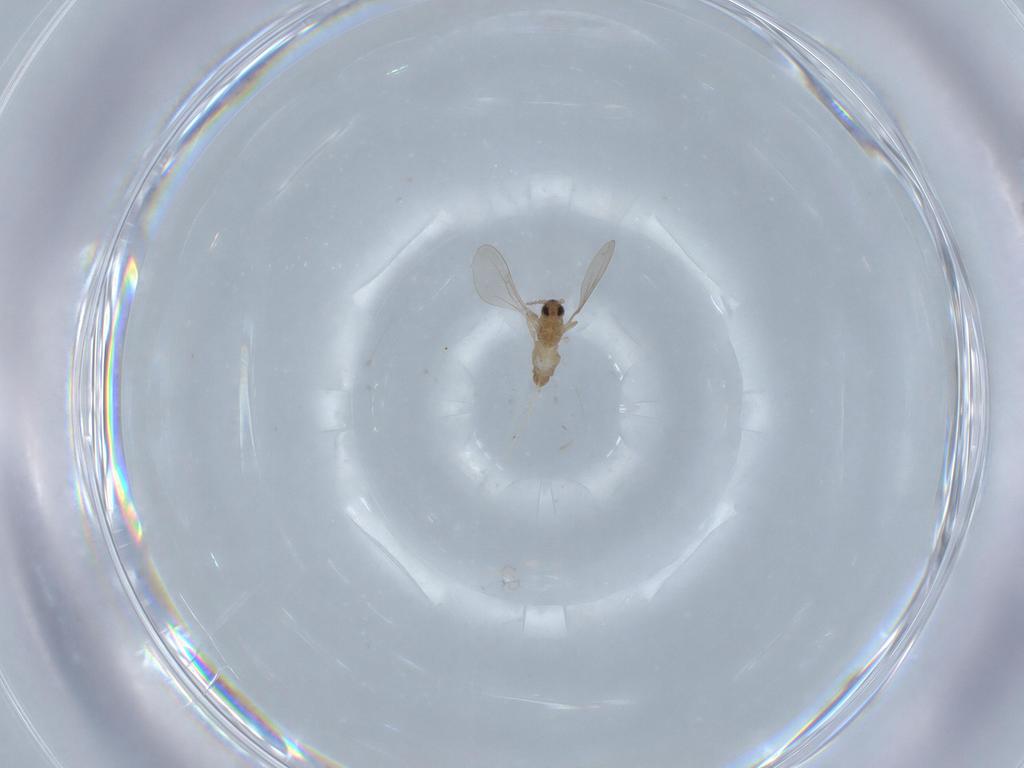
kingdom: Animalia
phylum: Arthropoda
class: Insecta
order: Diptera
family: Cecidomyiidae
